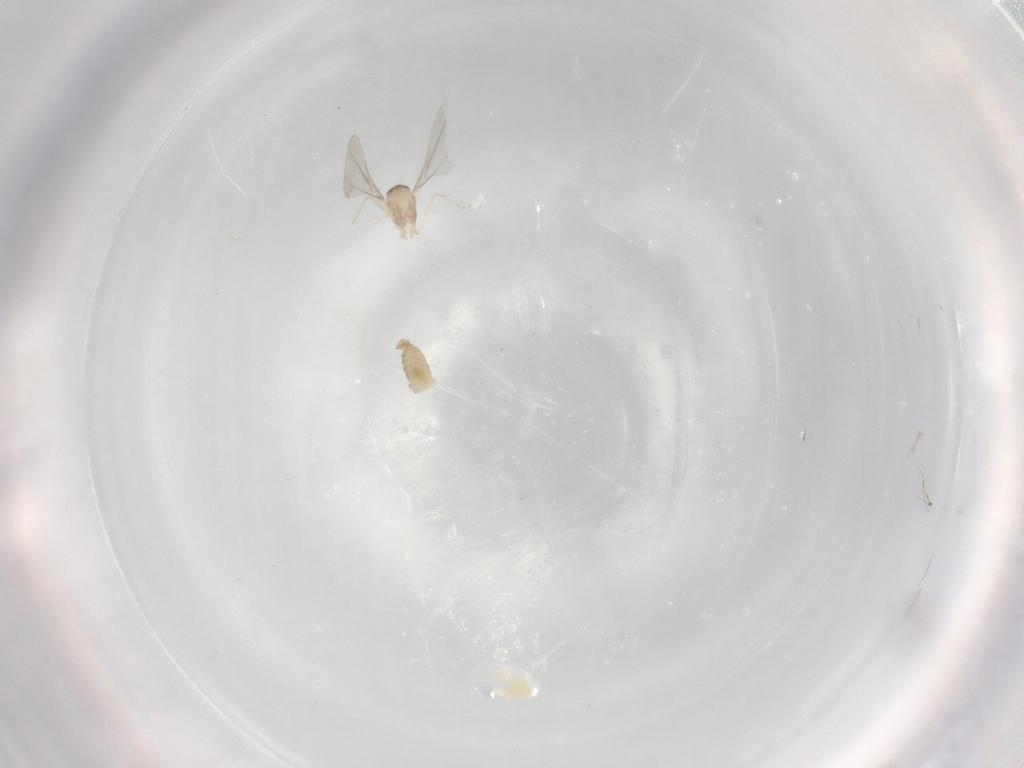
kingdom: Animalia
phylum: Arthropoda
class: Insecta
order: Diptera
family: Cecidomyiidae
